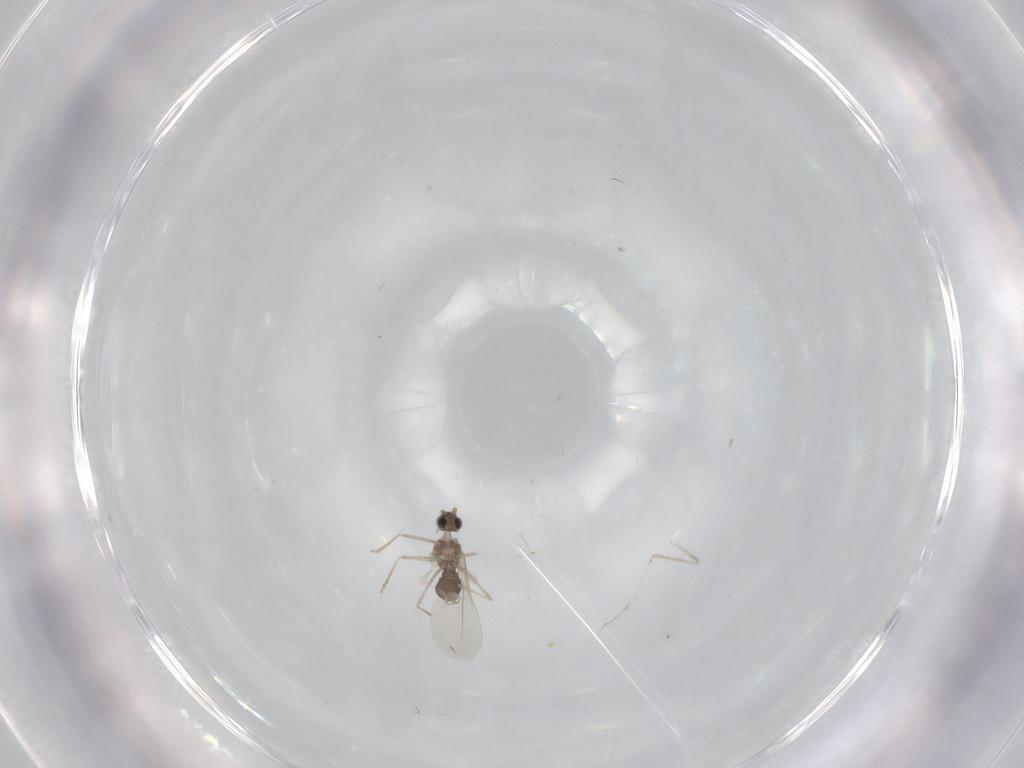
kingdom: Animalia
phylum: Arthropoda
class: Insecta
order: Diptera
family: Cecidomyiidae
